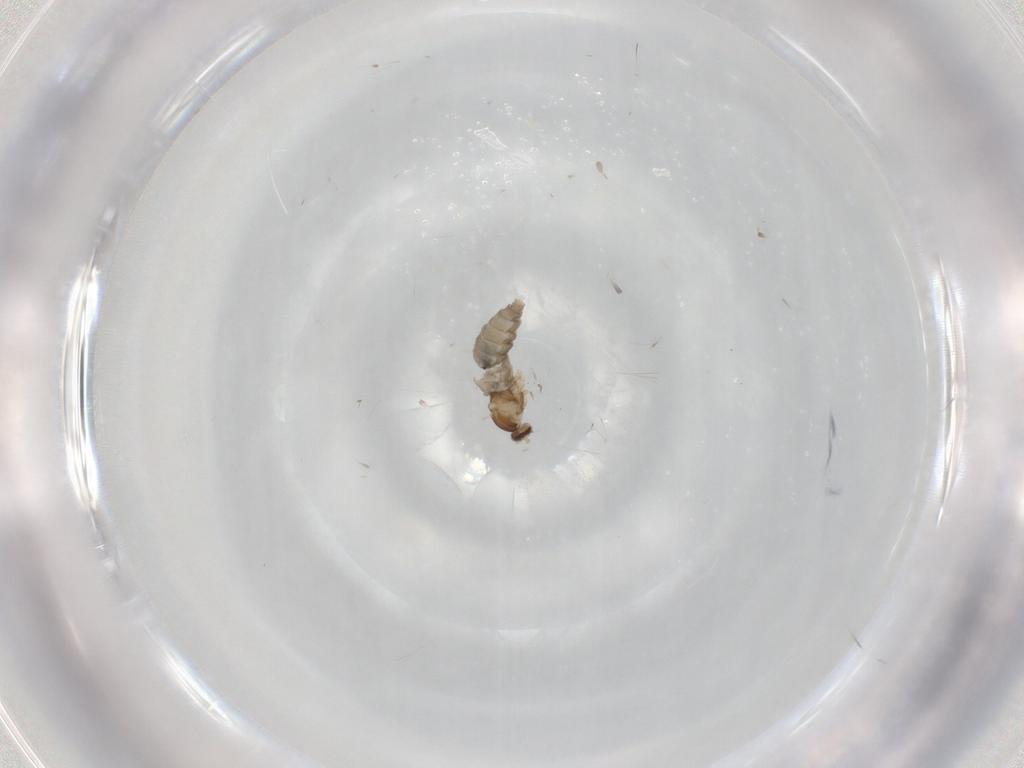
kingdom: Animalia
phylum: Arthropoda
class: Insecta
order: Diptera
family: Cecidomyiidae
